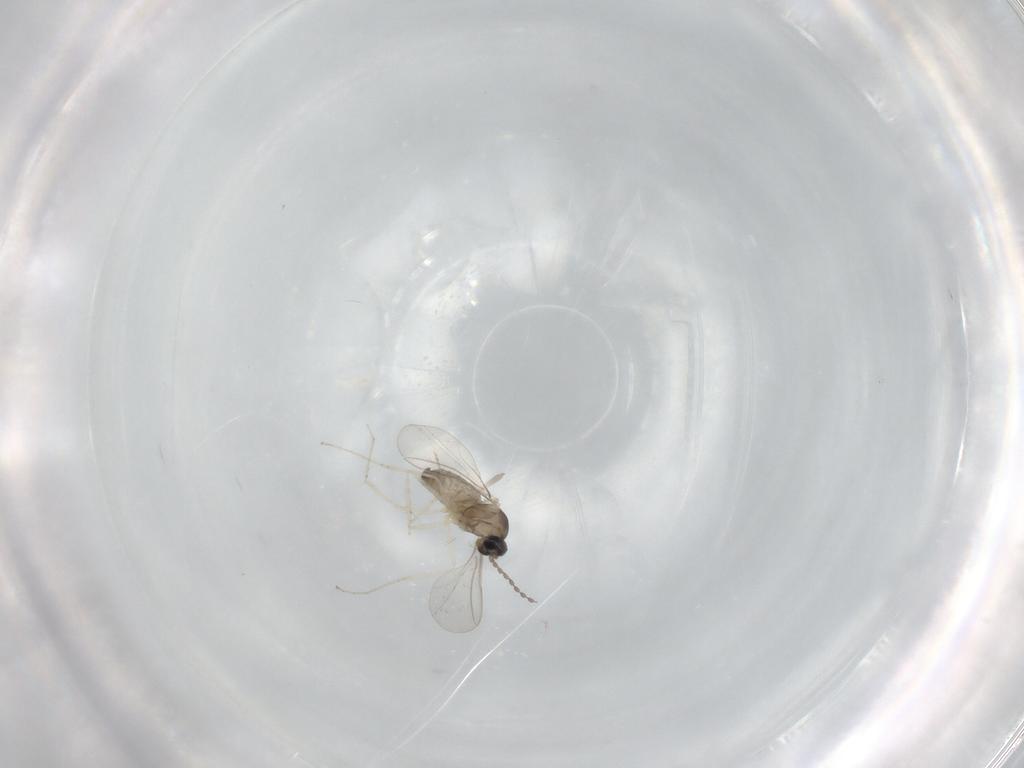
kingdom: Animalia
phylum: Arthropoda
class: Insecta
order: Diptera
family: Cecidomyiidae
